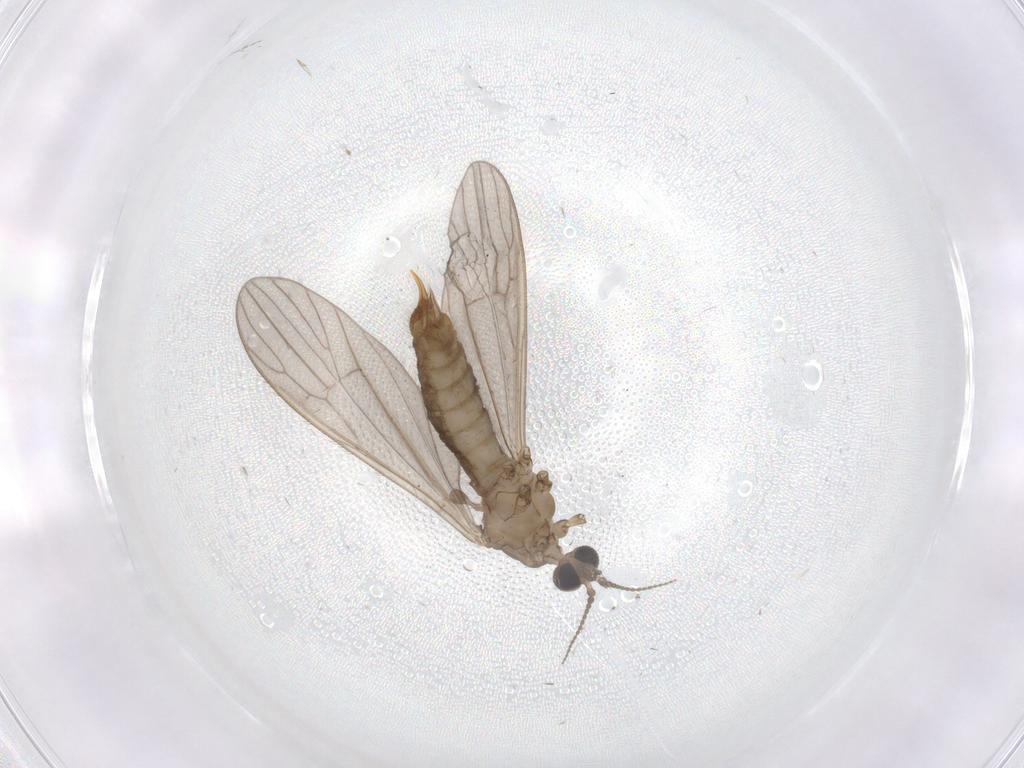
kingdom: Animalia
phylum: Arthropoda
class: Insecta
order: Diptera
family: Limoniidae
